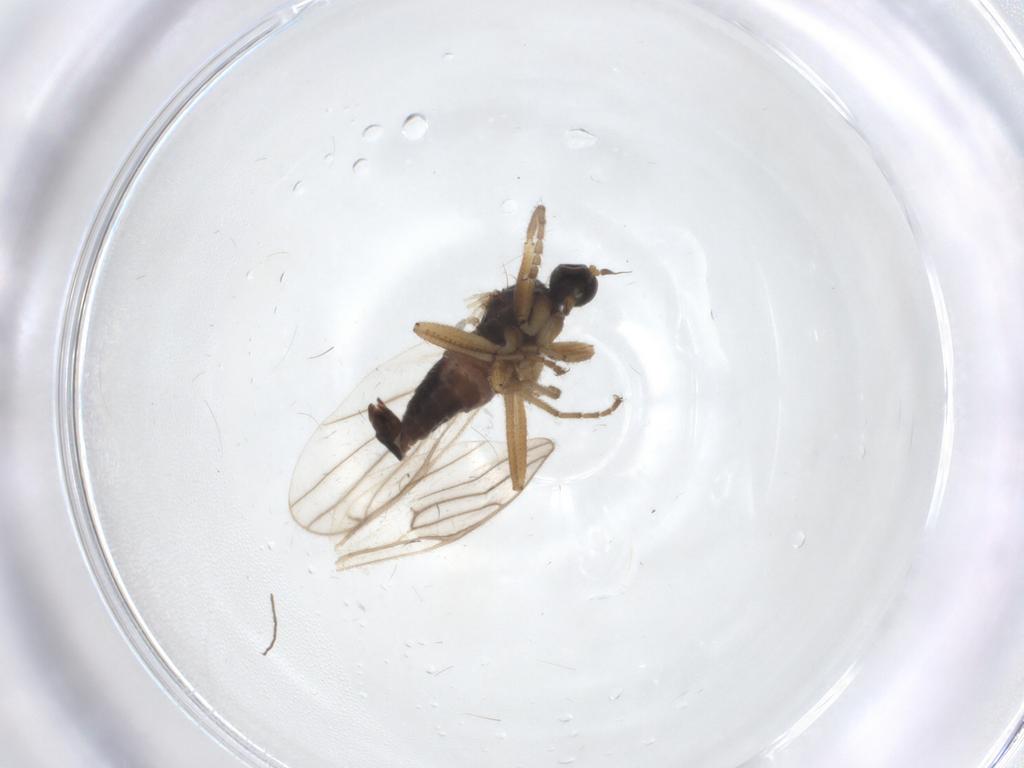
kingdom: Animalia
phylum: Arthropoda
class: Insecta
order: Diptera
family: Hybotidae
